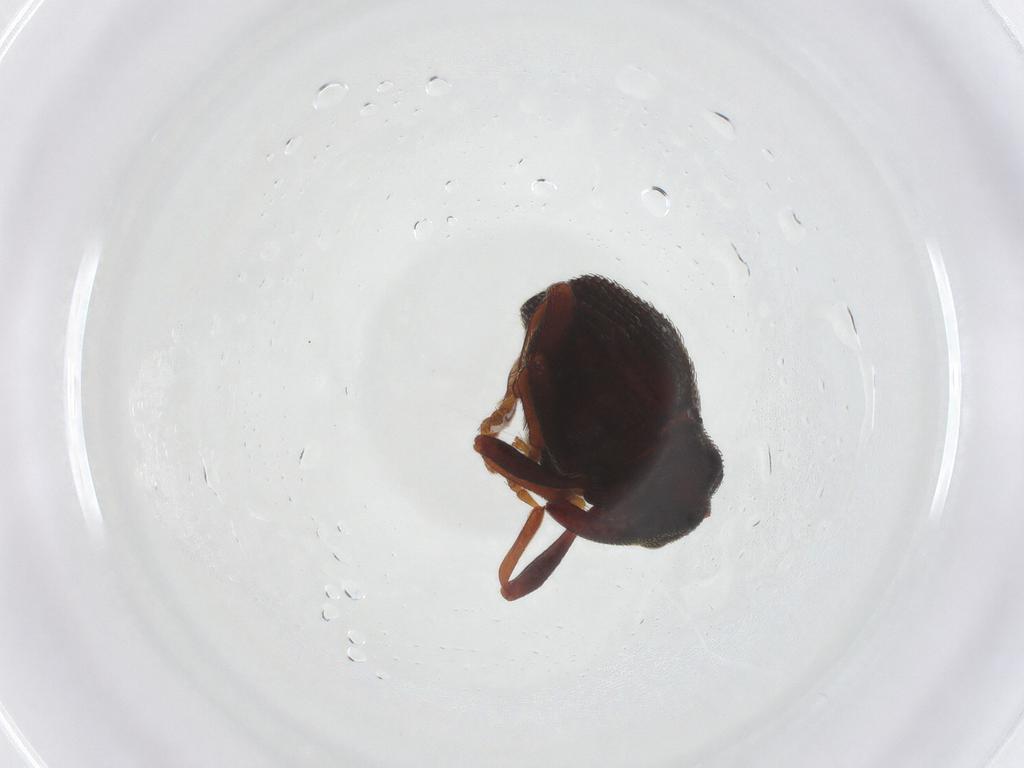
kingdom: Animalia
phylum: Arthropoda
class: Insecta
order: Coleoptera
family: Curculionidae
